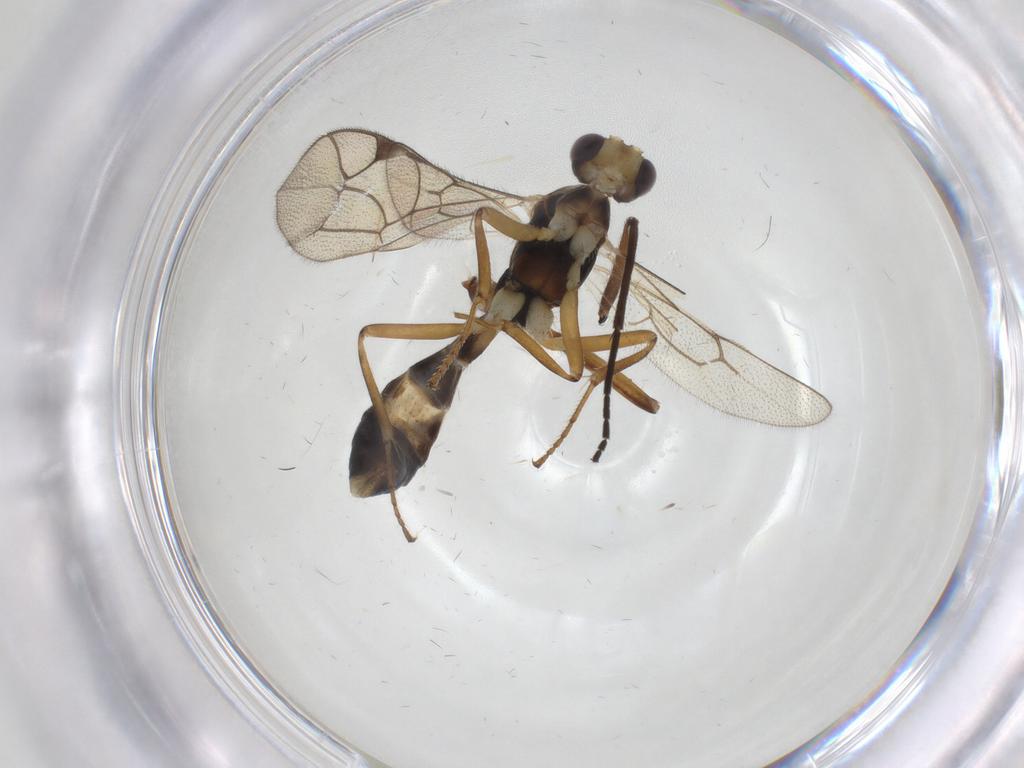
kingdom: Animalia
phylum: Arthropoda
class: Insecta
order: Hymenoptera
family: Ichneumonidae
